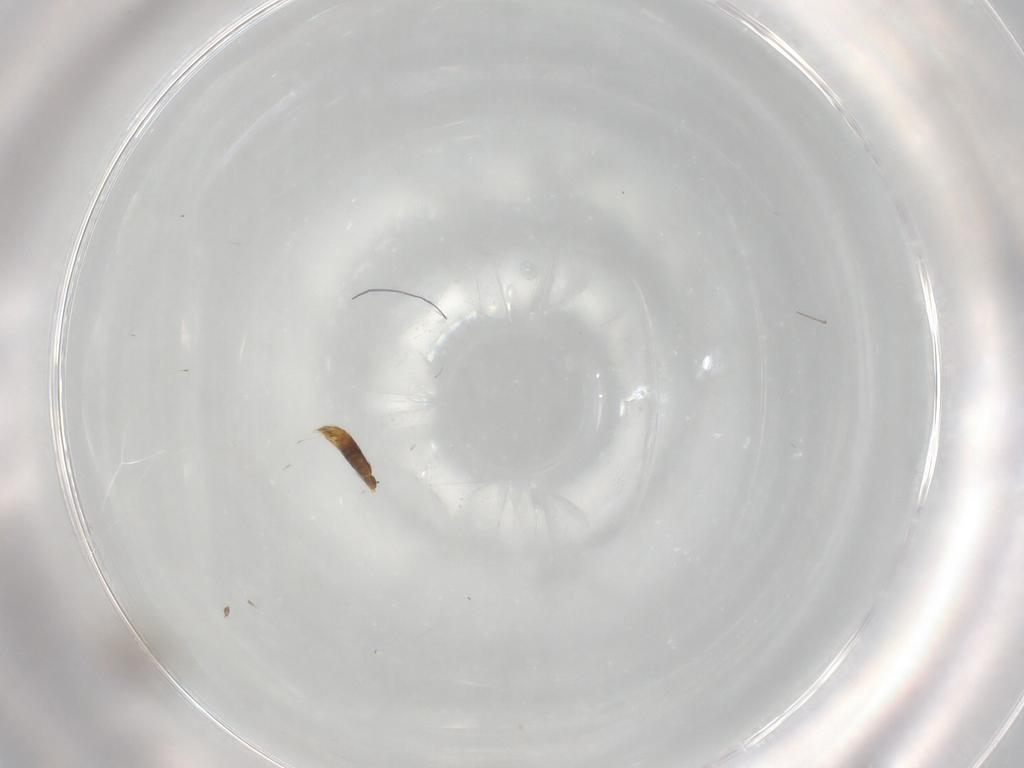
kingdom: Animalia
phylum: Arthropoda
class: Insecta
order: Hymenoptera
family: Formicidae
